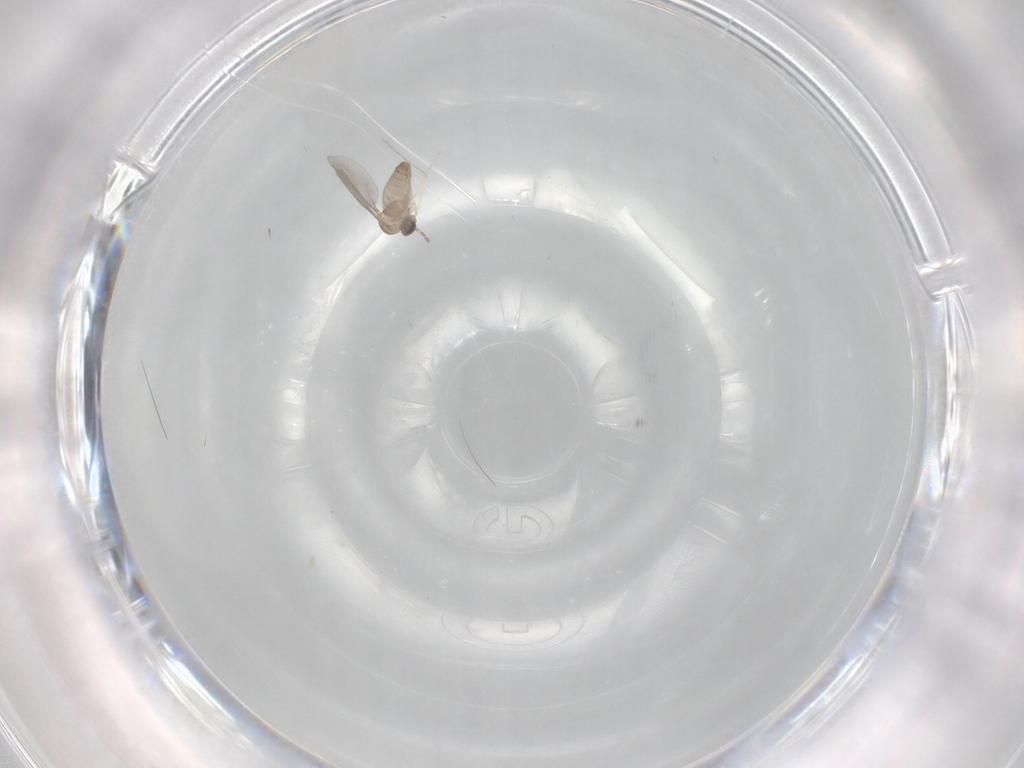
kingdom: Animalia
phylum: Arthropoda
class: Insecta
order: Diptera
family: Cecidomyiidae
